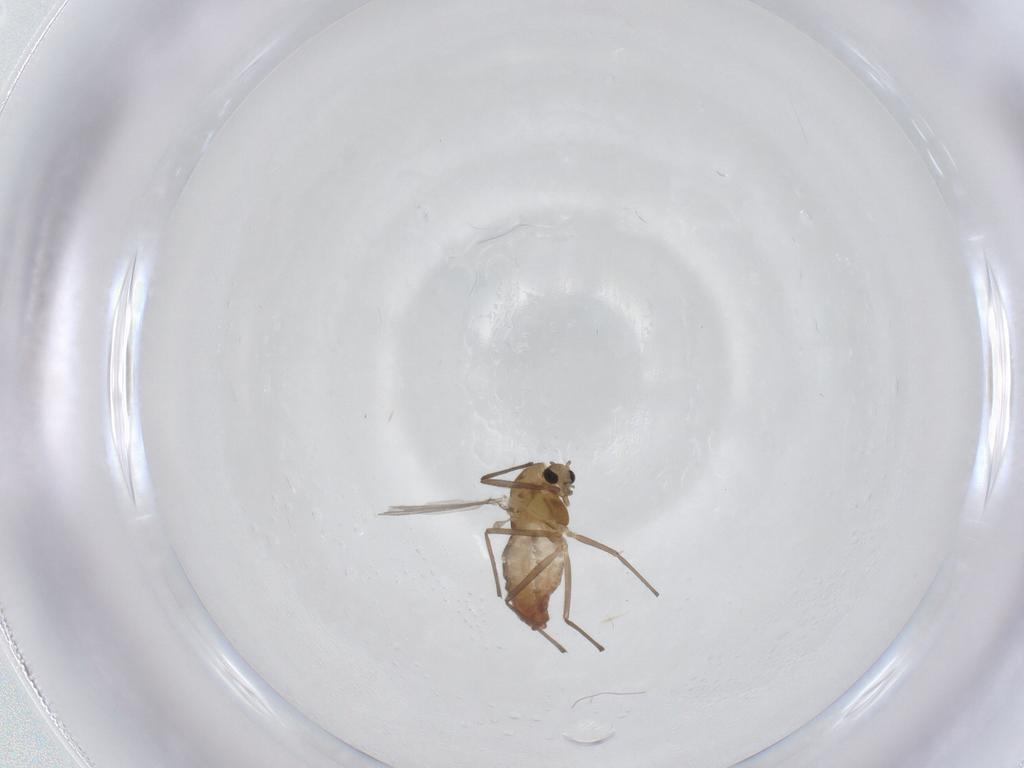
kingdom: Animalia
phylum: Arthropoda
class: Insecta
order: Diptera
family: Chironomidae
